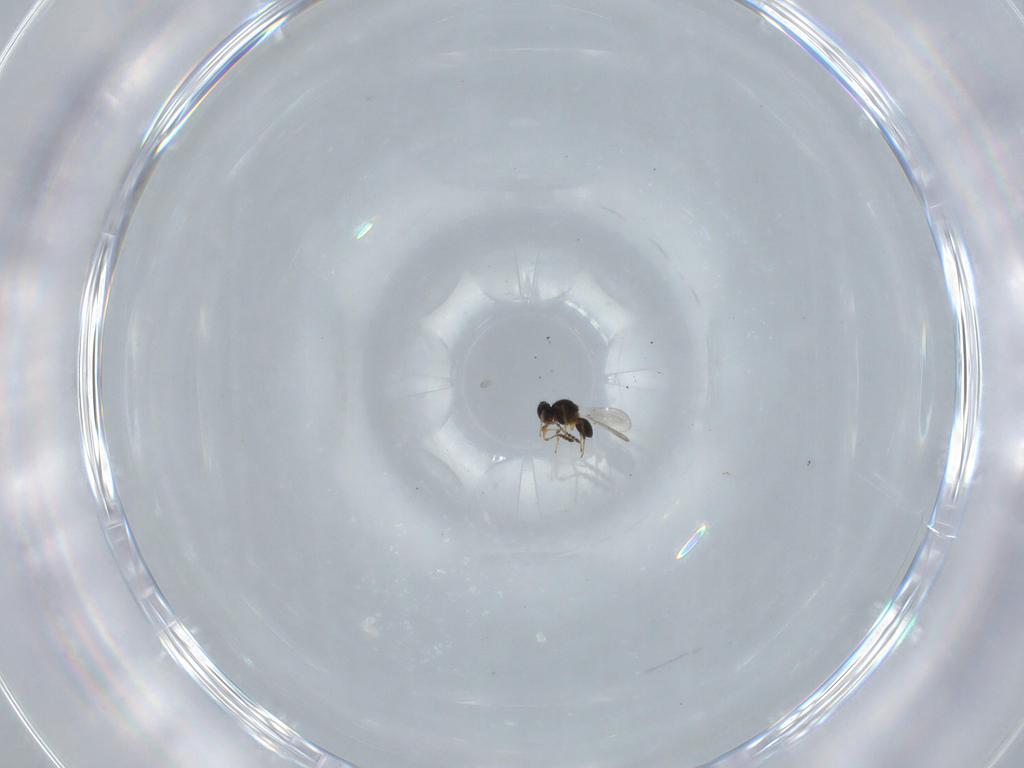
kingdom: Animalia
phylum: Arthropoda
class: Insecta
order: Hymenoptera
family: Platygastridae
